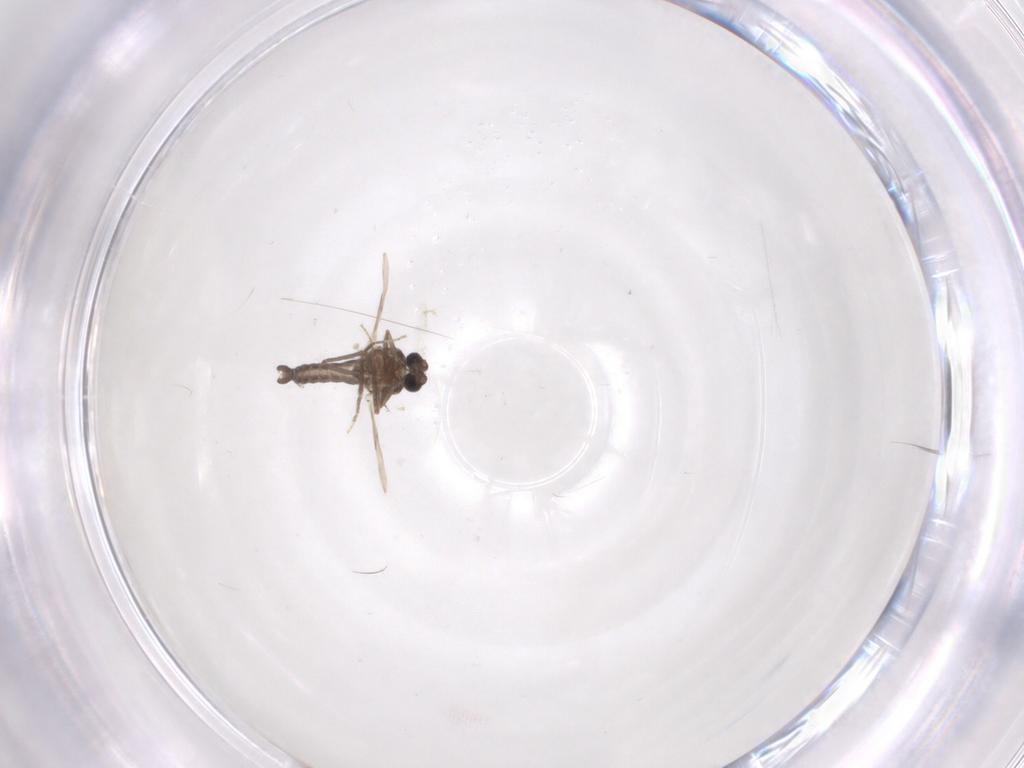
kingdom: Animalia
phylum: Arthropoda
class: Insecta
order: Diptera
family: Ceratopogonidae
